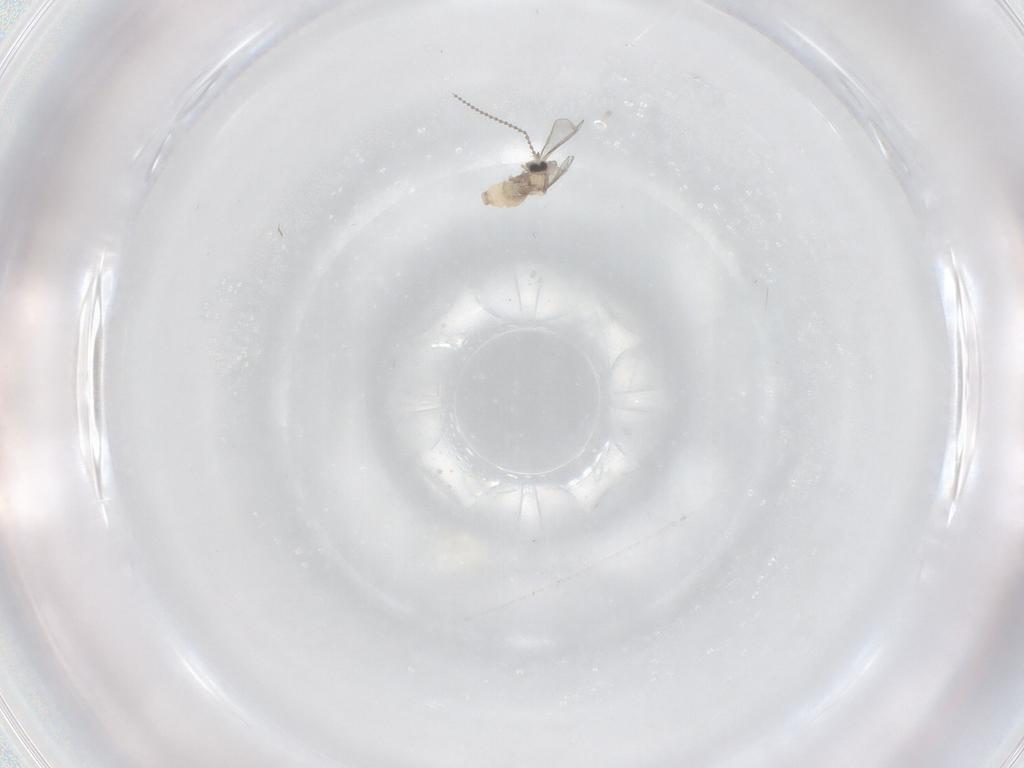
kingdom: Animalia
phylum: Arthropoda
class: Insecta
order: Diptera
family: Cecidomyiidae
